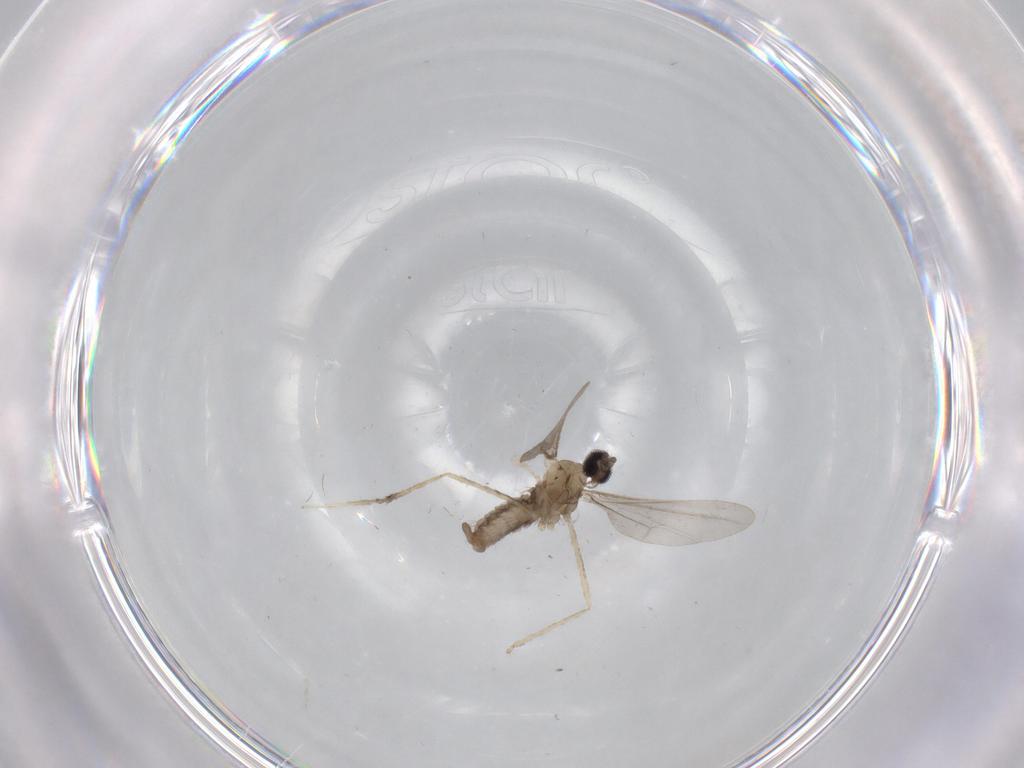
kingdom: Animalia
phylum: Arthropoda
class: Insecta
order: Diptera
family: Cecidomyiidae
